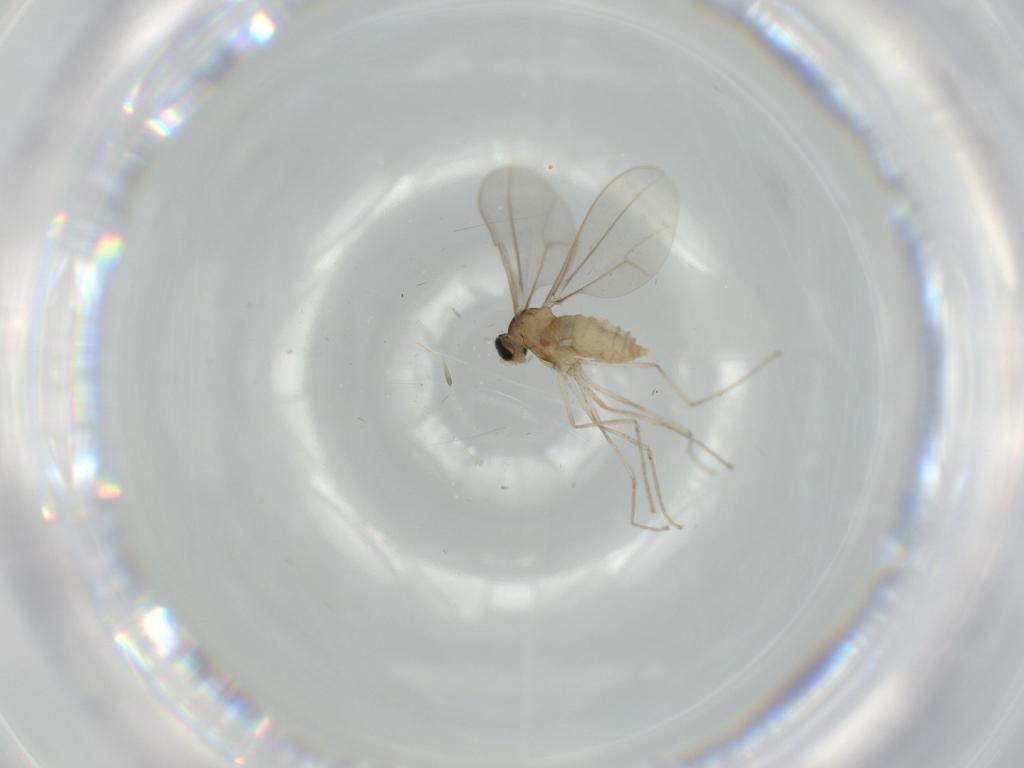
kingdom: Animalia
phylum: Arthropoda
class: Insecta
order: Diptera
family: Cecidomyiidae
